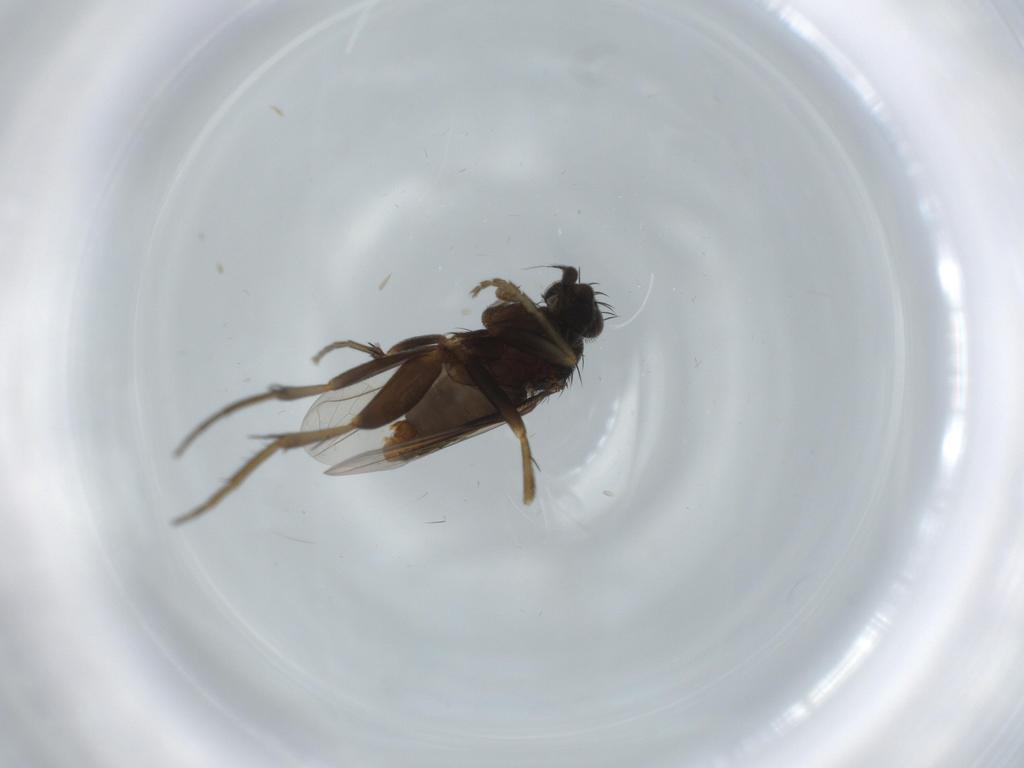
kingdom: Animalia
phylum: Arthropoda
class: Insecta
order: Diptera
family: Phoridae
